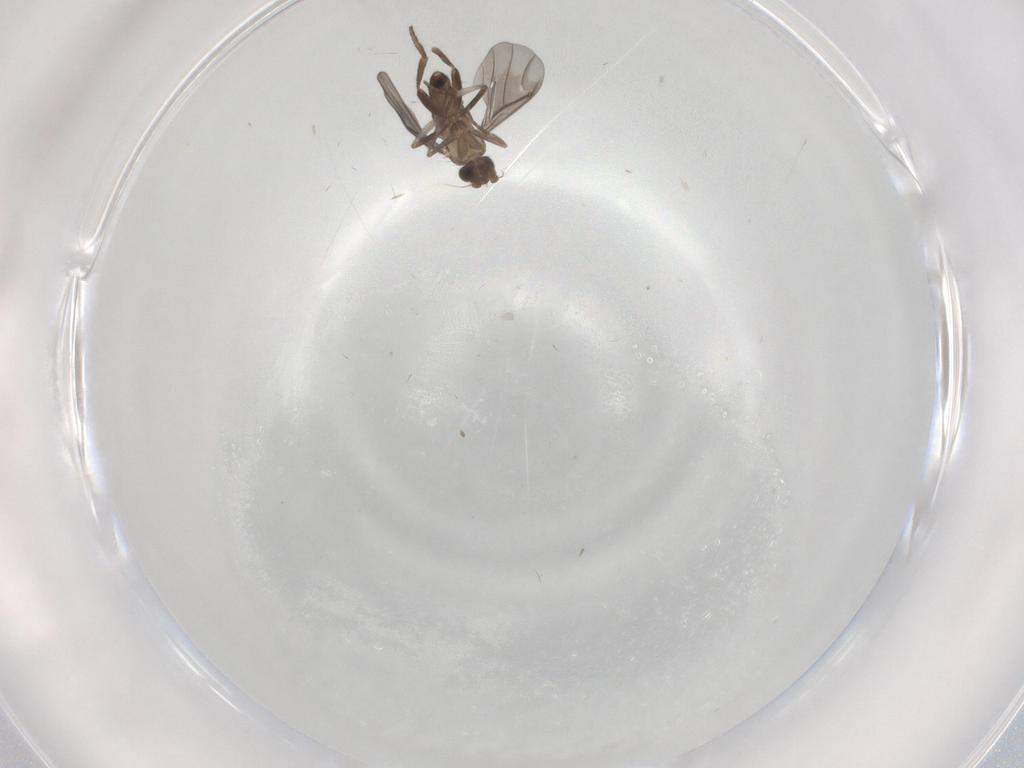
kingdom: Animalia
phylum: Arthropoda
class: Insecta
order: Diptera
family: Phoridae
